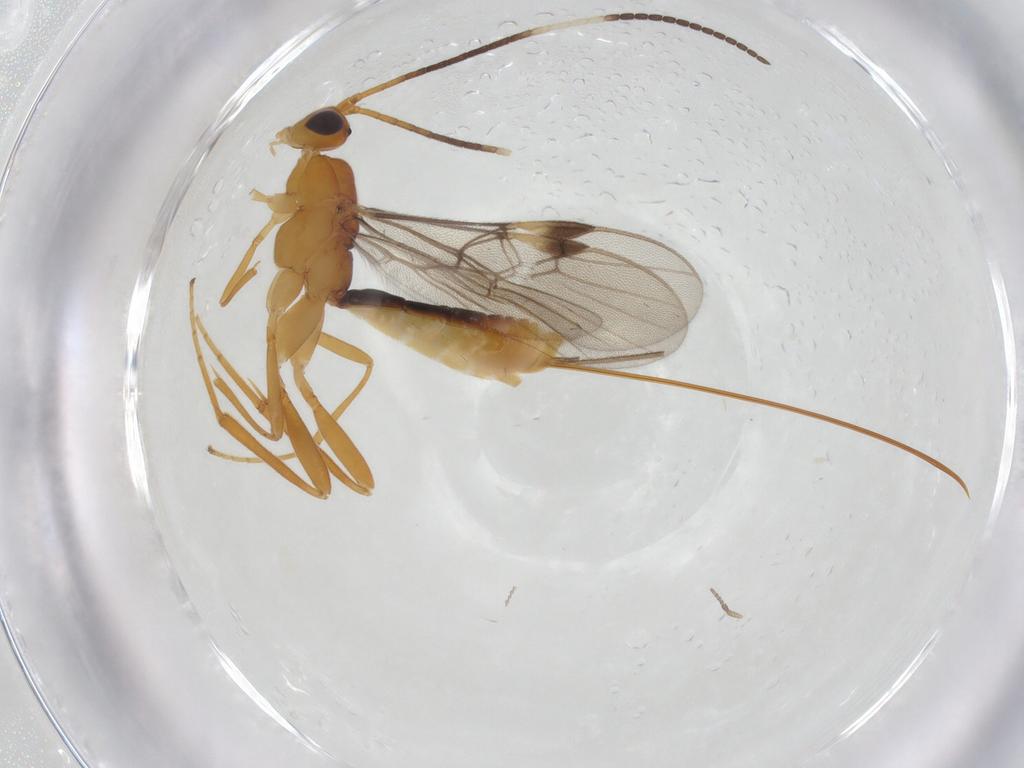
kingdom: Animalia
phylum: Arthropoda
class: Insecta
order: Hymenoptera
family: Braconidae
